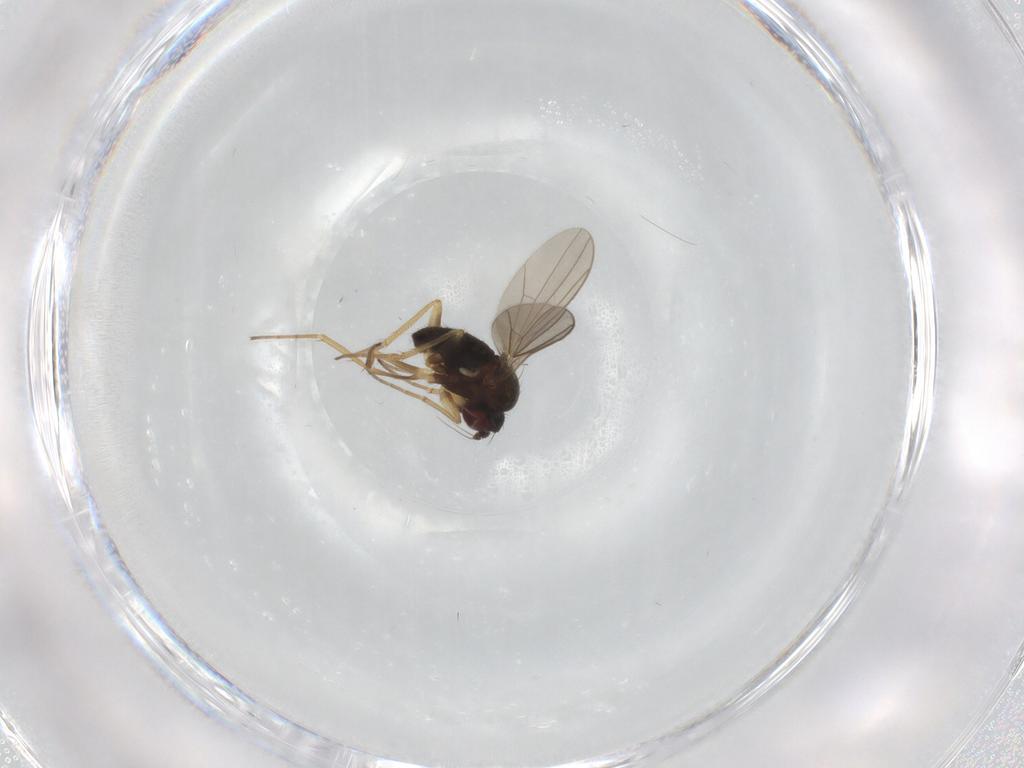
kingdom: Animalia
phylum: Arthropoda
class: Insecta
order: Diptera
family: Dolichopodidae
